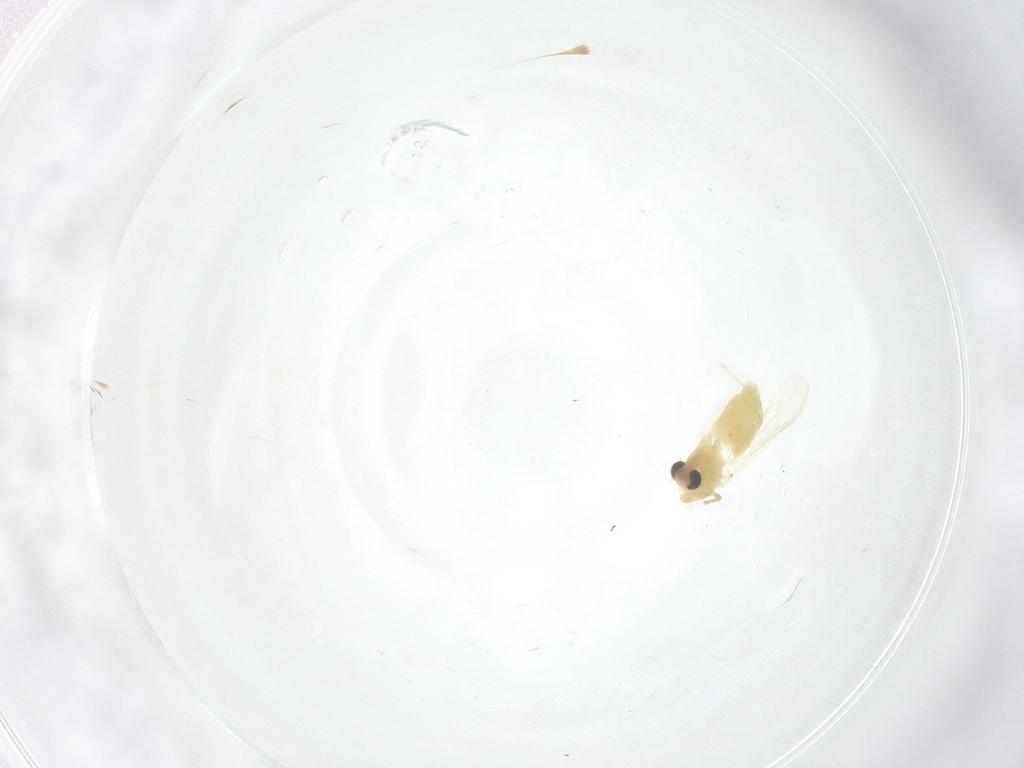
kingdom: Animalia
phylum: Arthropoda
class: Insecta
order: Diptera
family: Chironomidae
